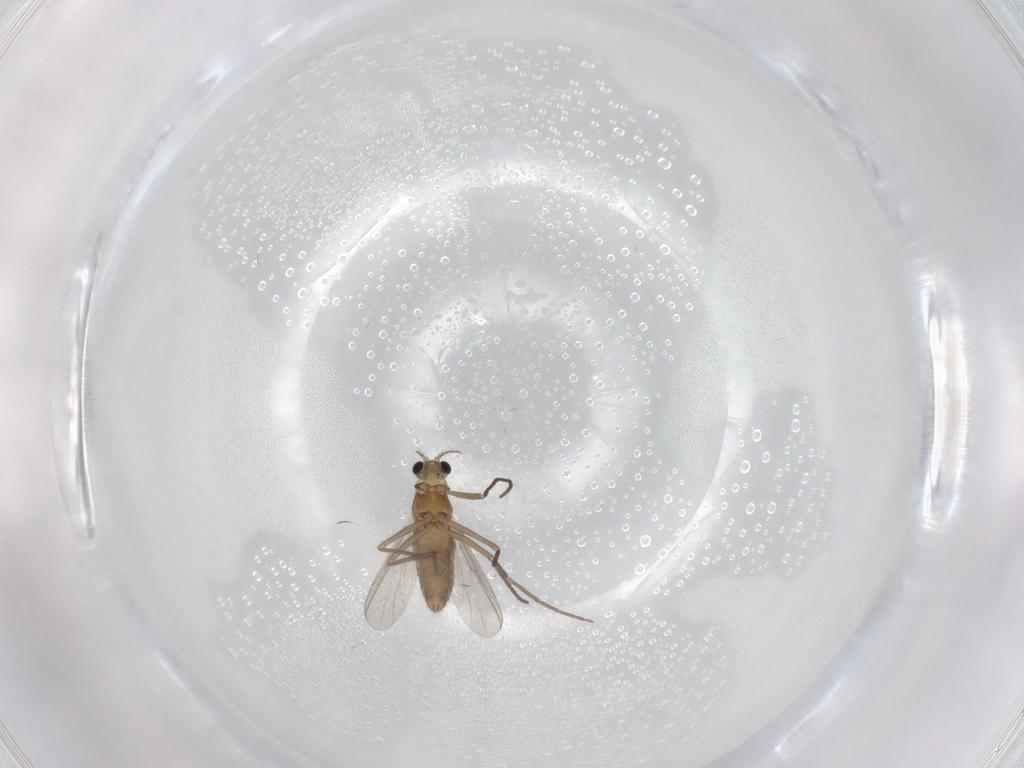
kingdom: Animalia
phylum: Arthropoda
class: Insecta
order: Diptera
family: Chironomidae
